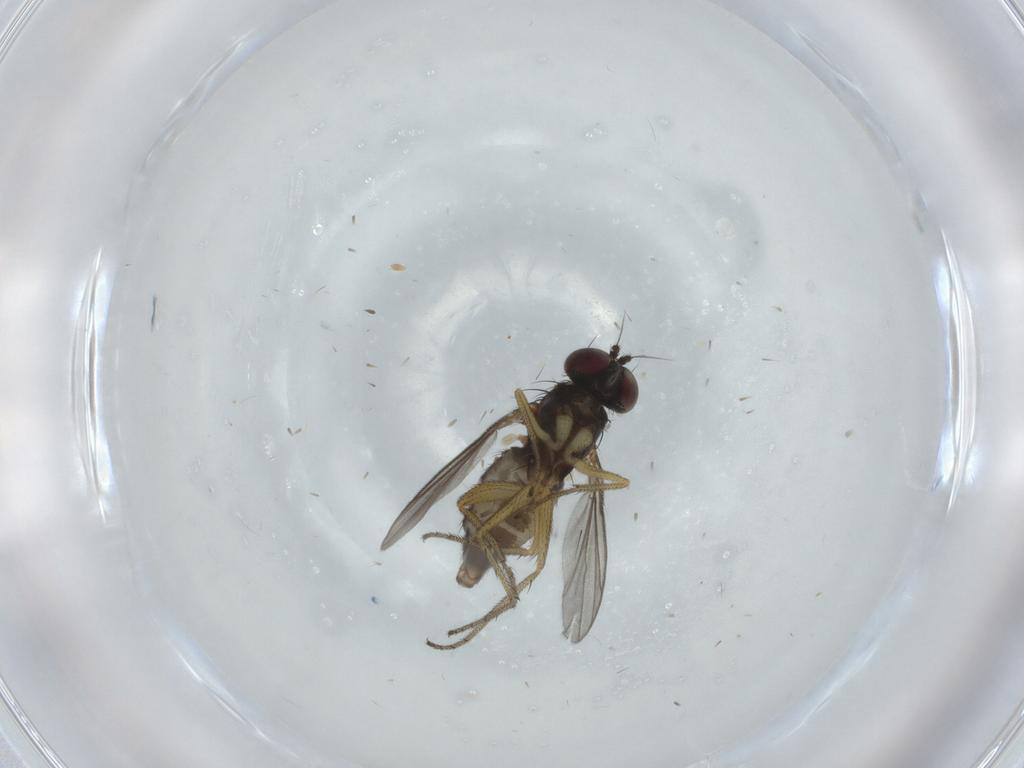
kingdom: Animalia
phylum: Arthropoda
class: Insecta
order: Diptera
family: Dolichopodidae
